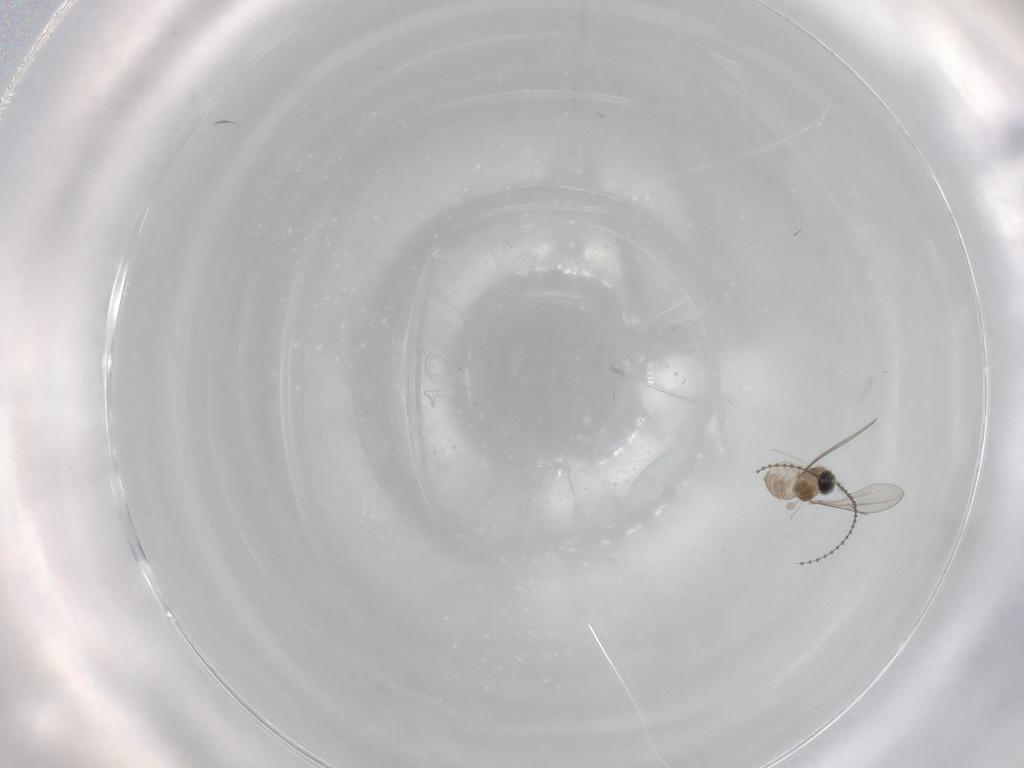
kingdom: Animalia
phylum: Arthropoda
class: Insecta
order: Diptera
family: Cecidomyiidae
